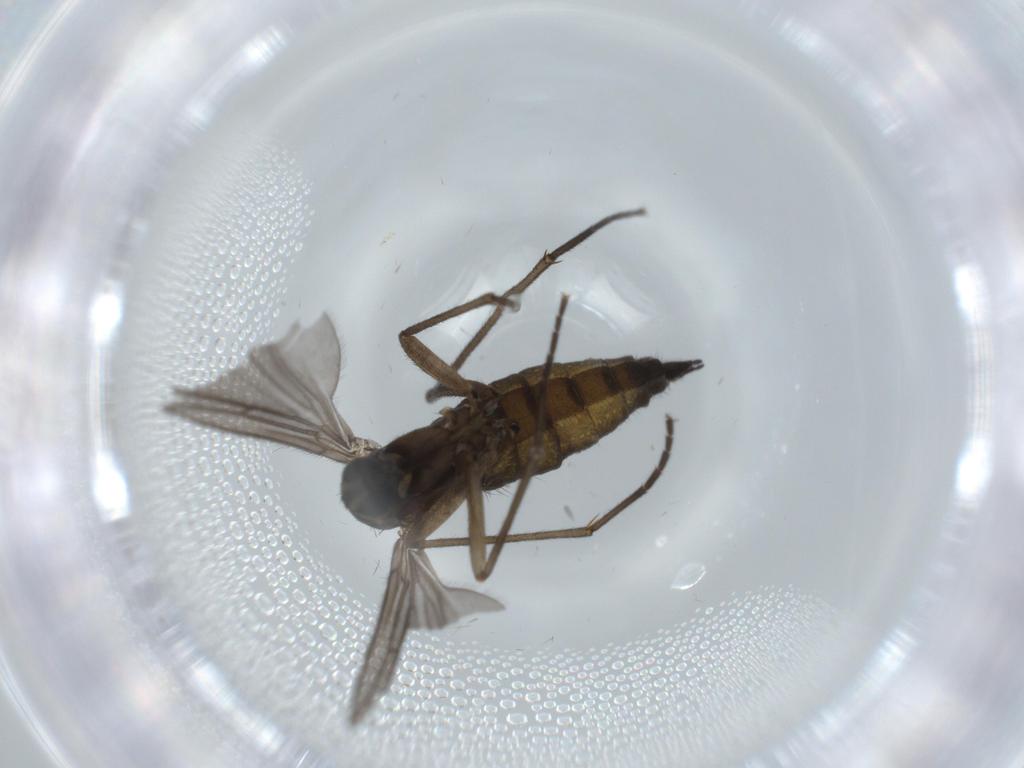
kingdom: Animalia
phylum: Arthropoda
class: Insecta
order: Diptera
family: Sciaridae
